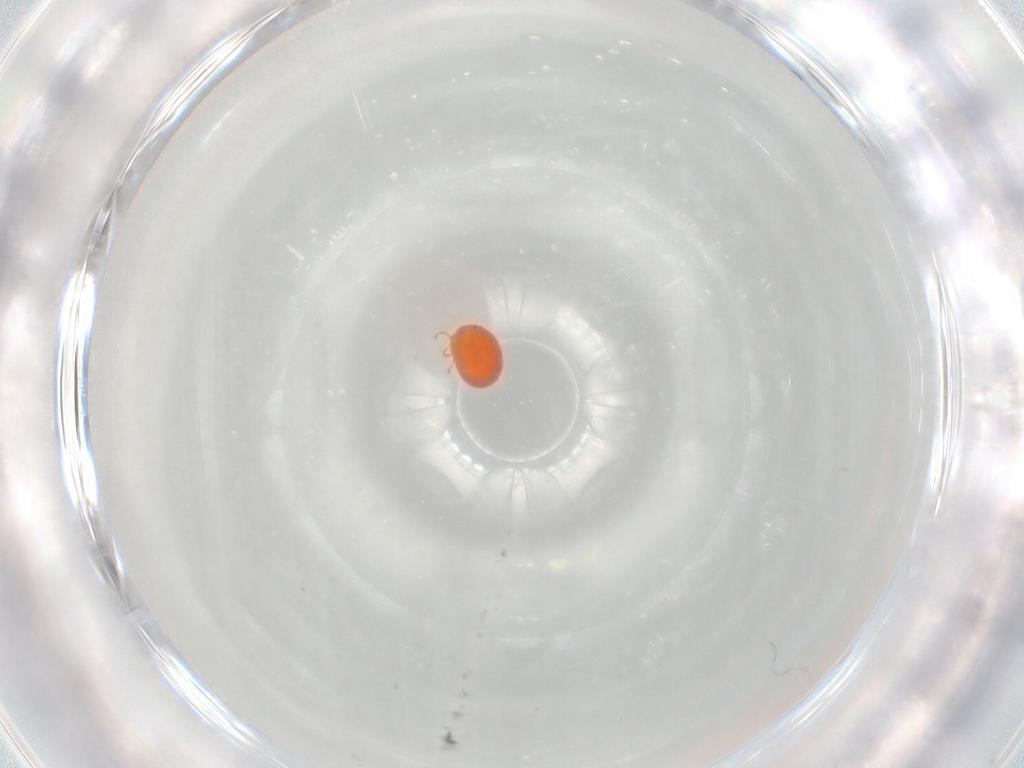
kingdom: Animalia
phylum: Arthropoda
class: Arachnida
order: Trombidiformes
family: Hydryphantidae
